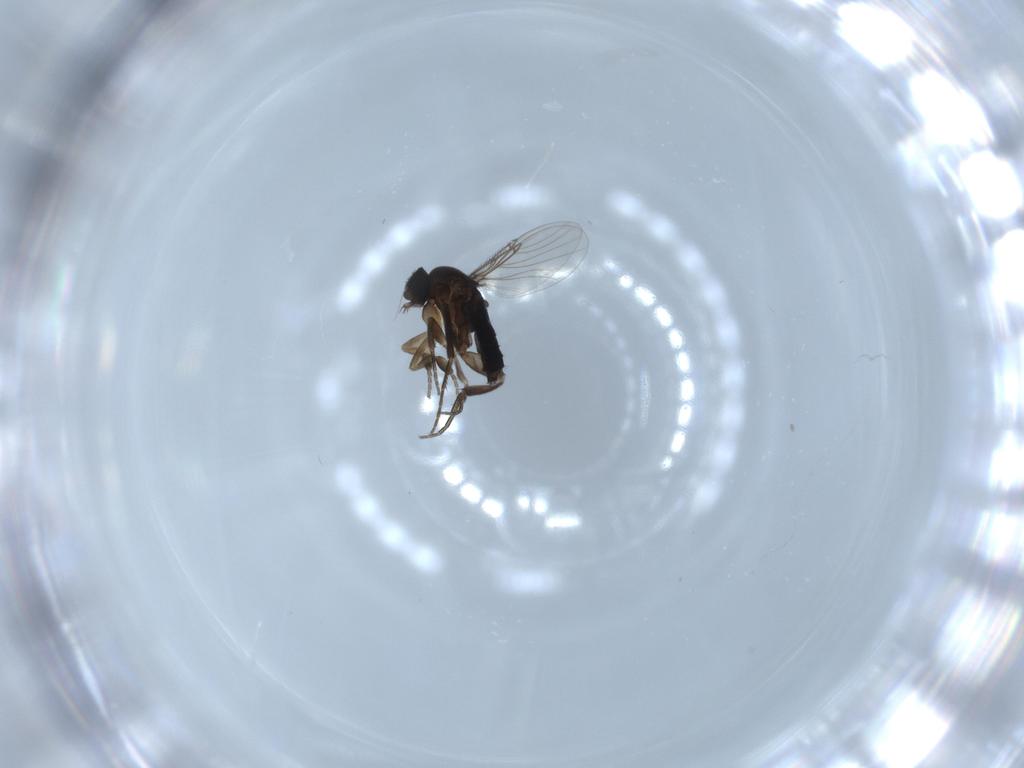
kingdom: Animalia
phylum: Arthropoda
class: Insecta
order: Diptera
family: Phoridae
